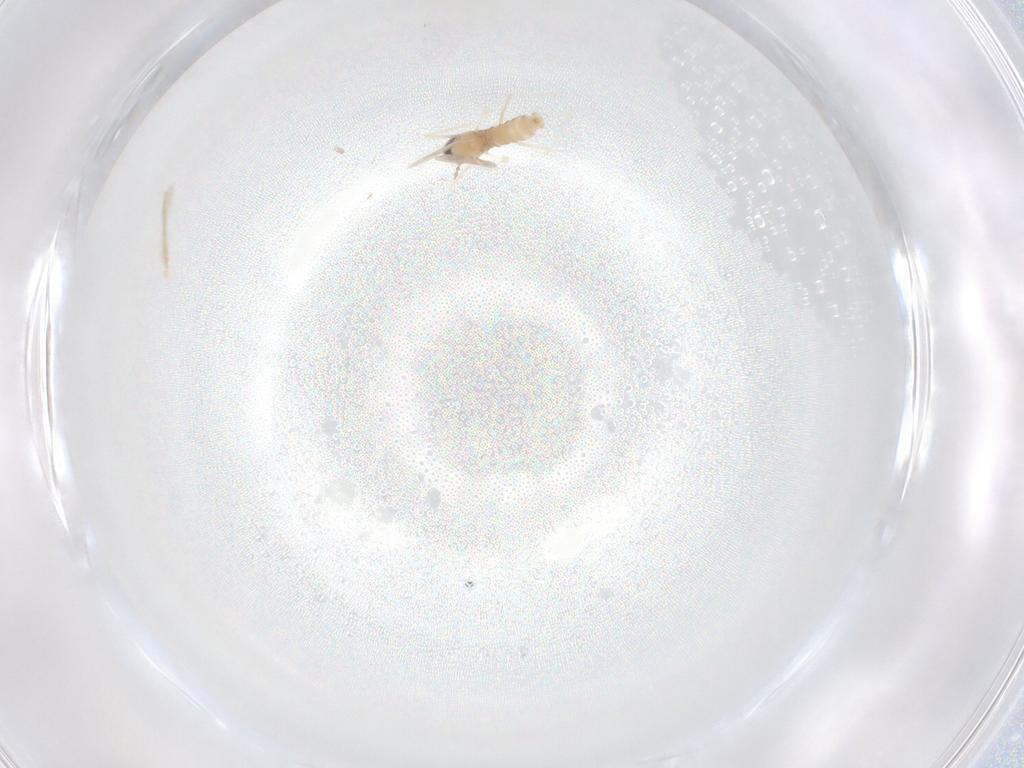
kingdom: Animalia
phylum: Arthropoda
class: Insecta
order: Diptera
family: Cecidomyiidae
